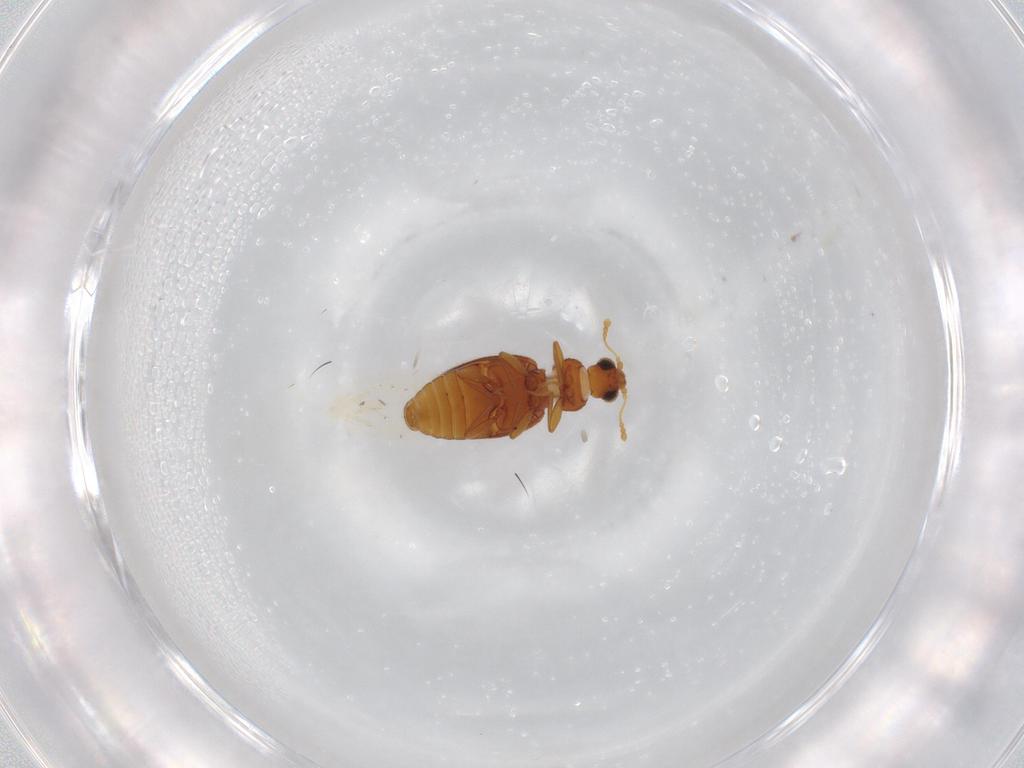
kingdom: Animalia
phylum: Arthropoda
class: Insecta
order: Coleoptera
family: Latridiidae
